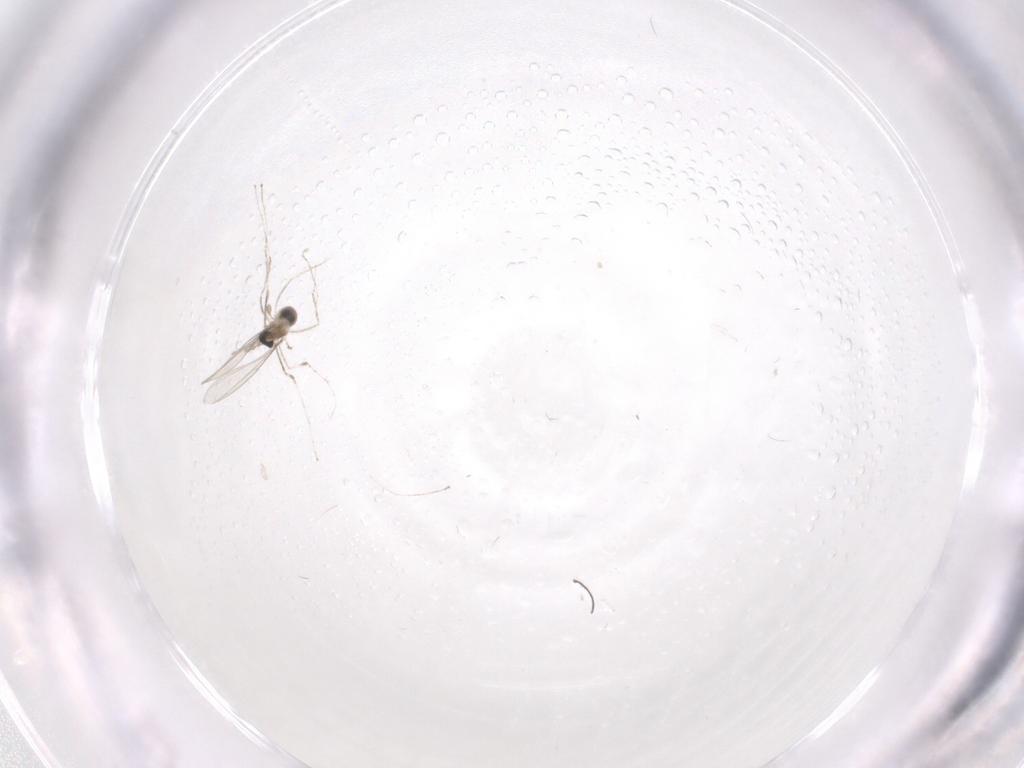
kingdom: Animalia
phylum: Arthropoda
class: Insecta
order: Diptera
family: Cecidomyiidae
